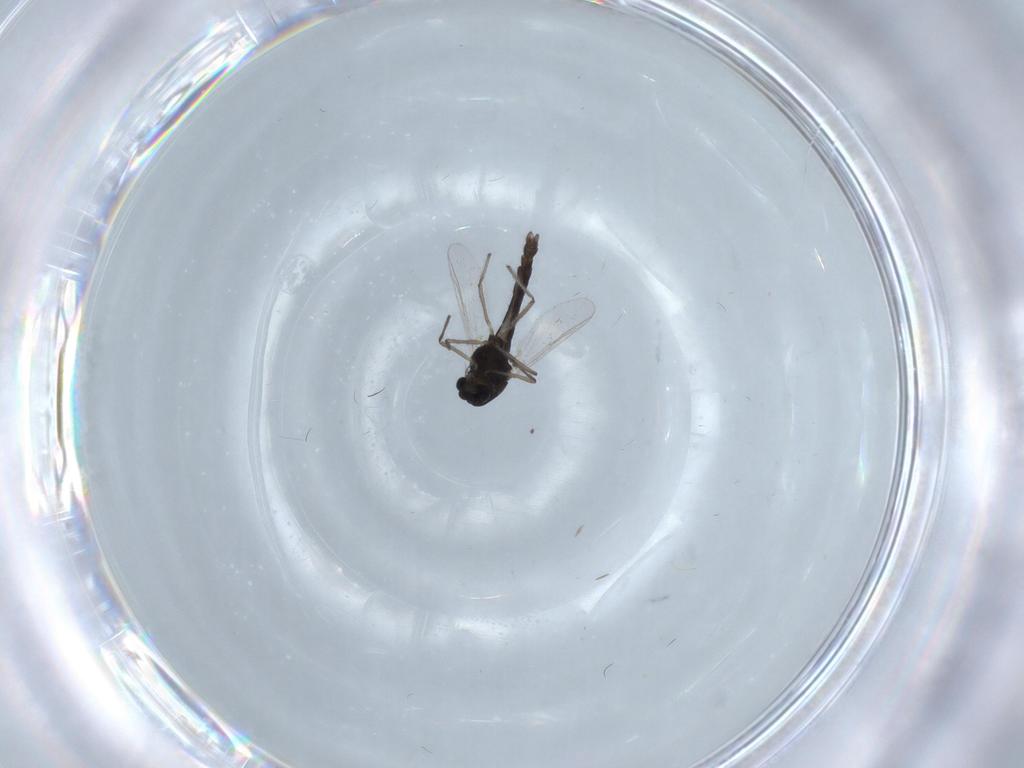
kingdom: Animalia
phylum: Arthropoda
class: Insecta
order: Diptera
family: Chironomidae
